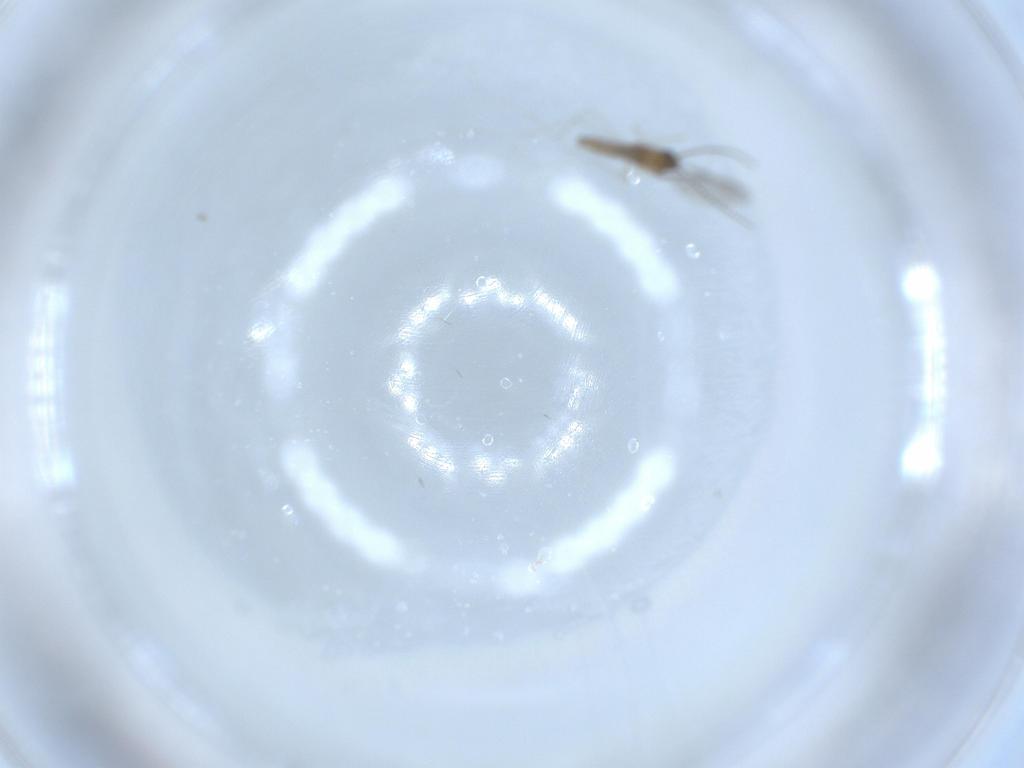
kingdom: Animalia
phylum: Arthropoda
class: Insecta
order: Diptera
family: Cecidomyiidae
